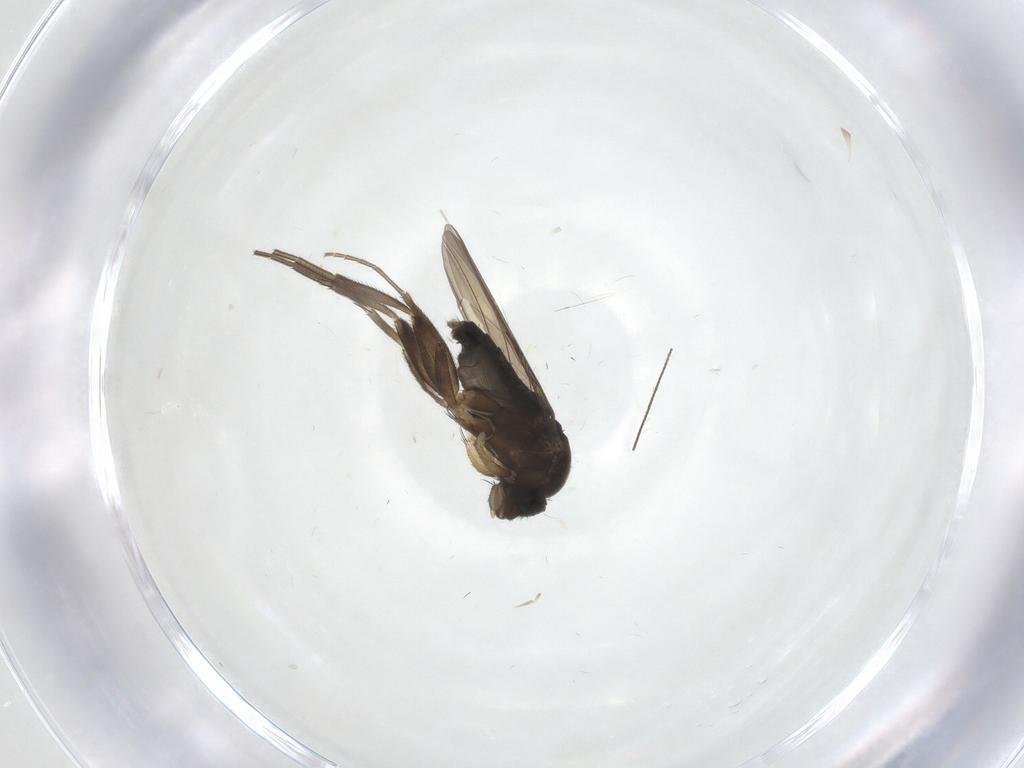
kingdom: Animalia
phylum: Arthropoda
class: Insecta
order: Diptera
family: Phoridae
